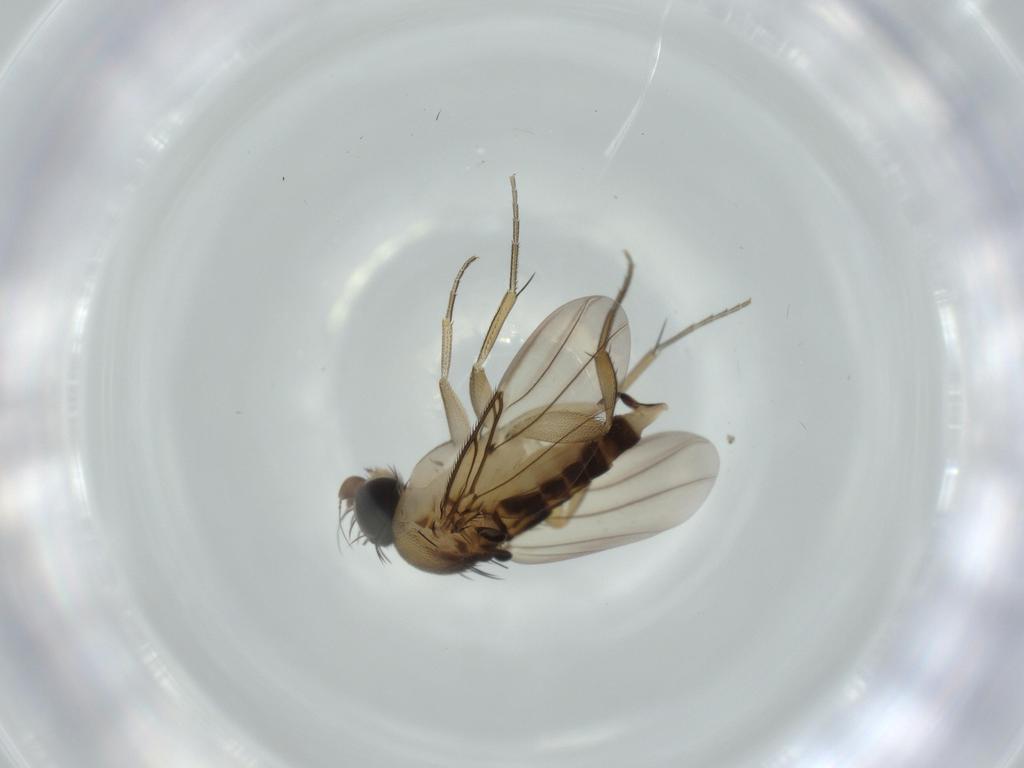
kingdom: Animalia
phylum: Arthropoda
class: Insecta
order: Diptera
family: Phoridae
